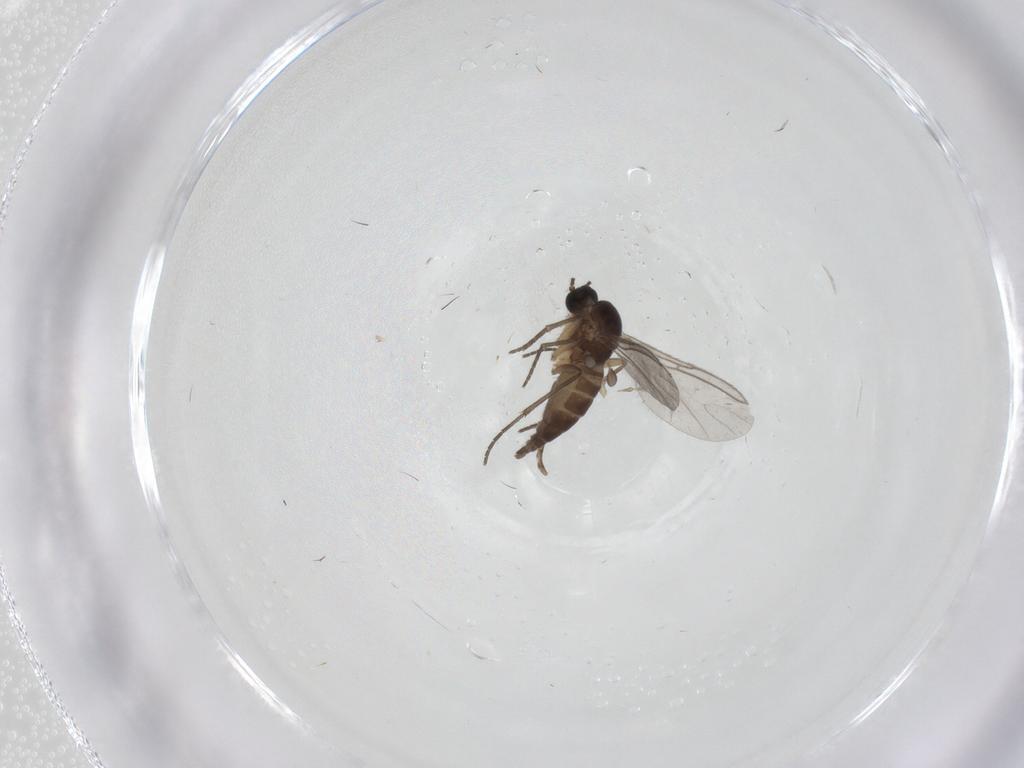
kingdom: Animalia
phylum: Arthropoda
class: Insecta
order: Diptera
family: Sciaridae
